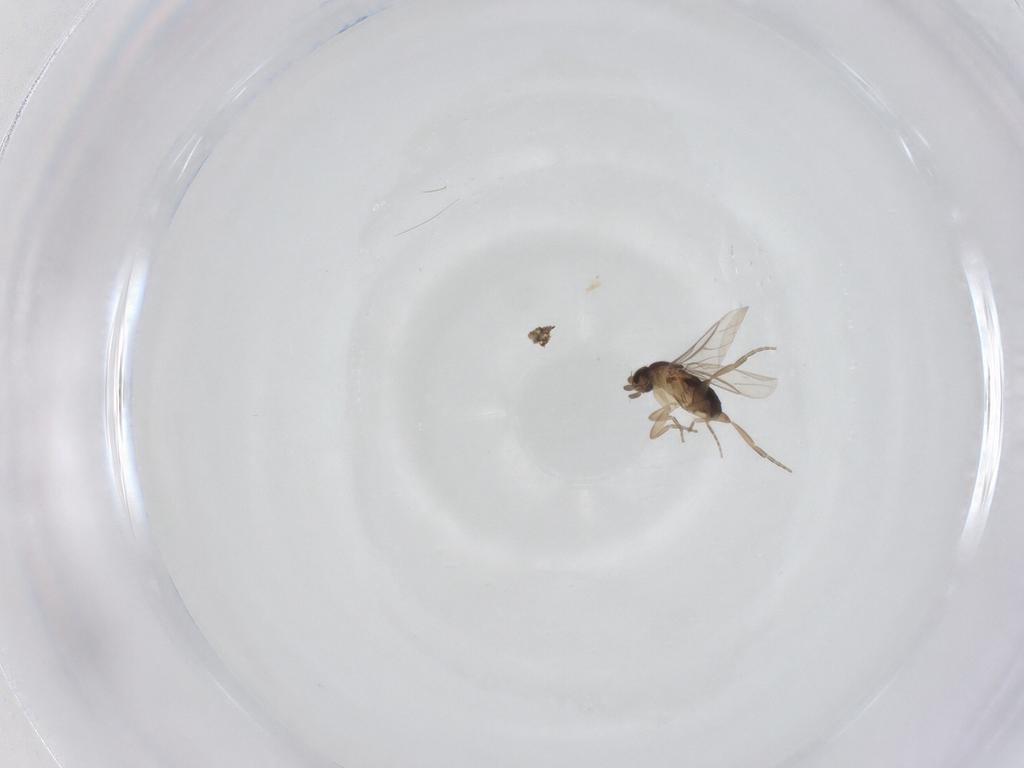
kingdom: Animalia
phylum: Arthropoda
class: Insecta
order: Diptera
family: Phoridae
